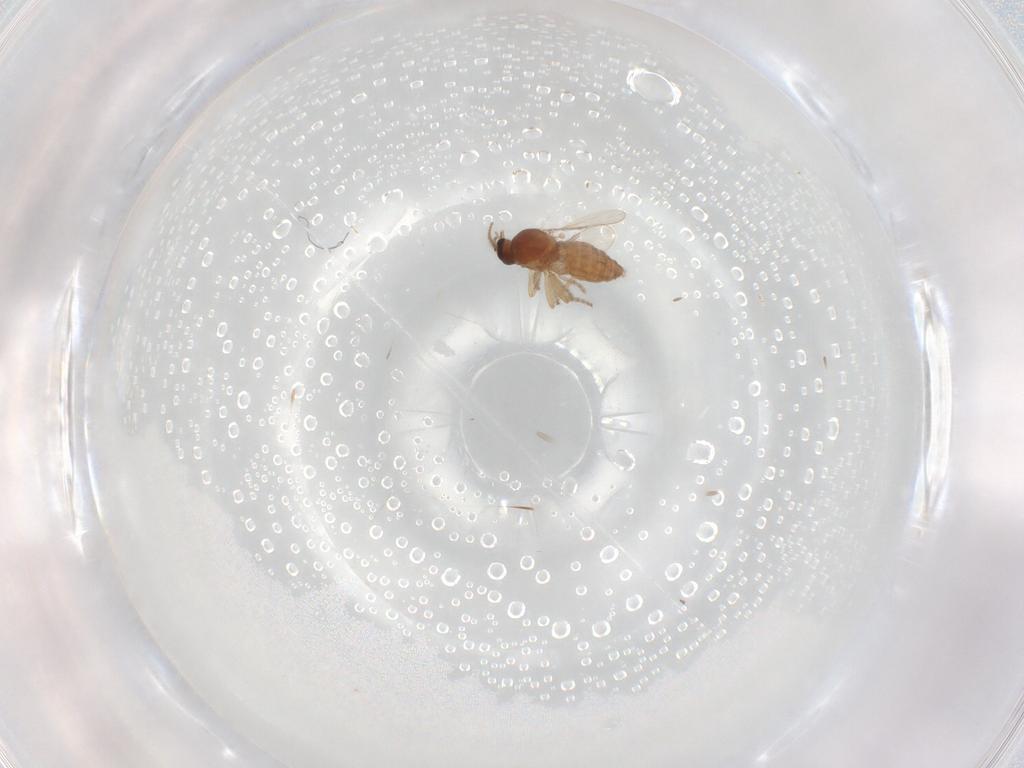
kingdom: Animalia
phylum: Arthropoda
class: Insecta
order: Diptera
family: Ceratopogonidae
